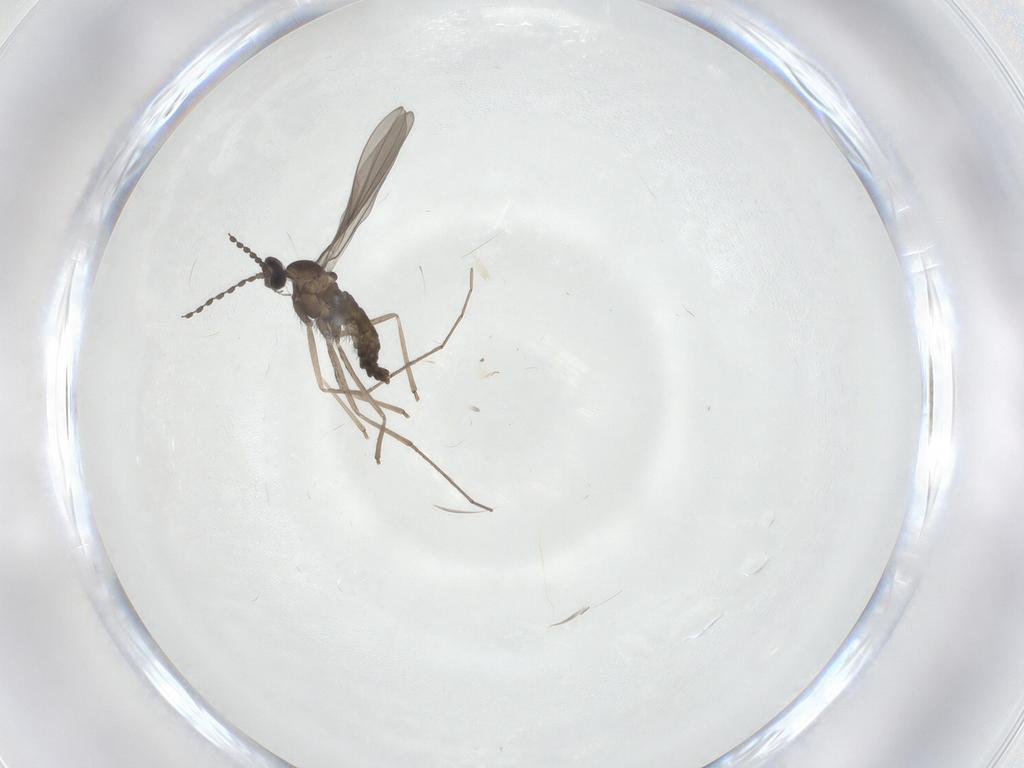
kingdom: Animalia
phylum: Arthropoda
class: Insecta
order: Diptera
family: Cecidomyiidae
